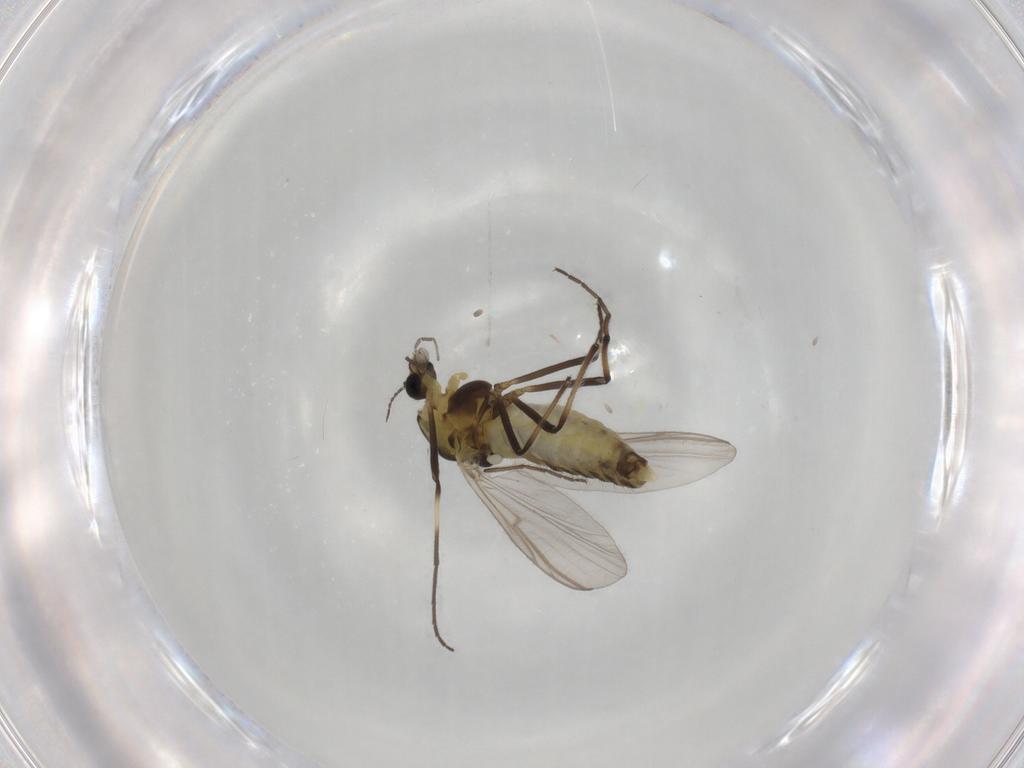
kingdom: Animalia
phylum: Arthropoda
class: Insecta
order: Diptera
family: Chironomidae
